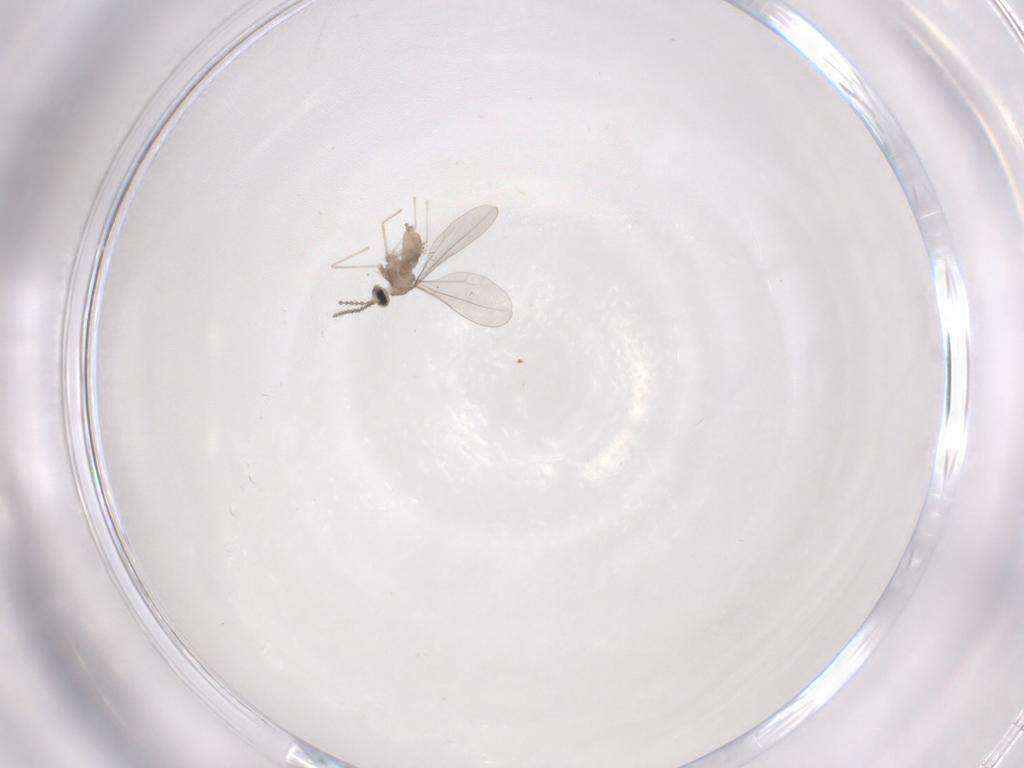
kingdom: Animalia
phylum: Arthropoda
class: Insecta
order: Diptera
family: Cecidomyiidae
